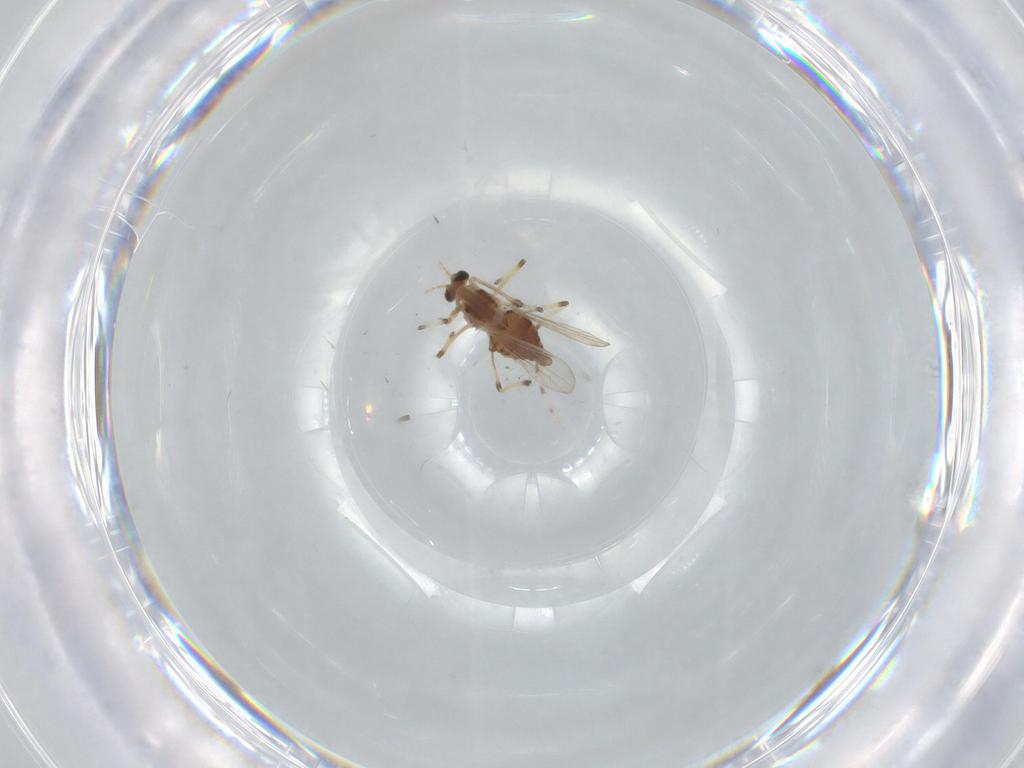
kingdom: Animalia
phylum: Arthropoda
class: Insecta
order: Diptera
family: Chironomidae
